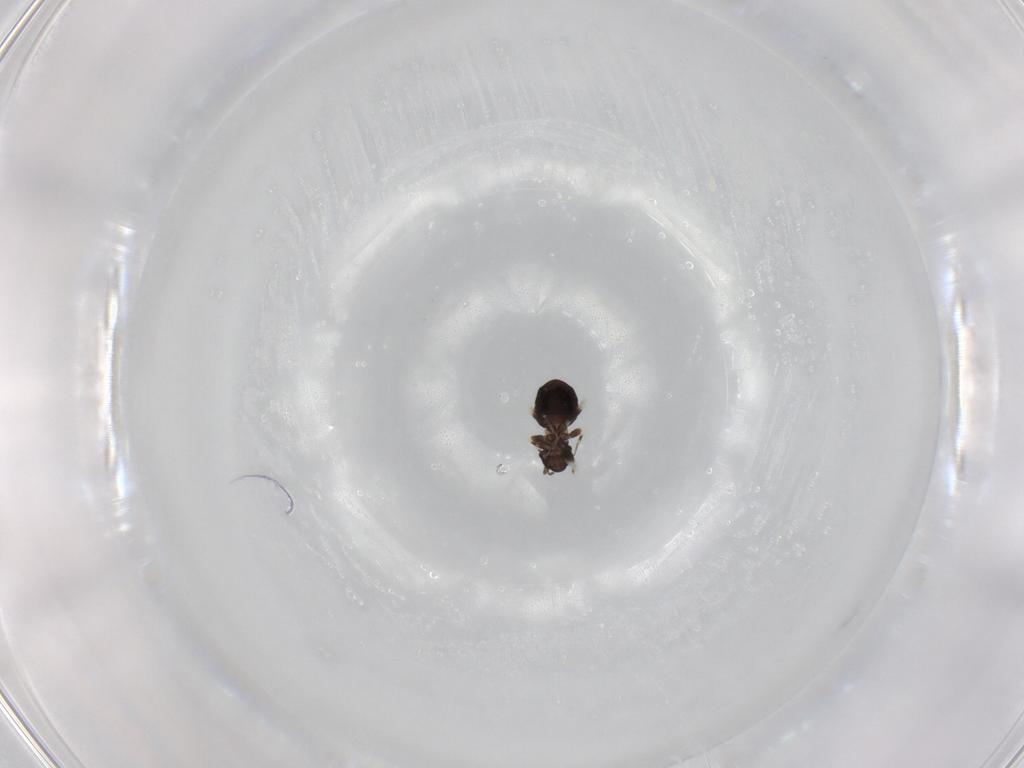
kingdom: Animalia
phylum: Arthropoda
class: Insecta
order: Psocodea
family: Lepidopsocidae
